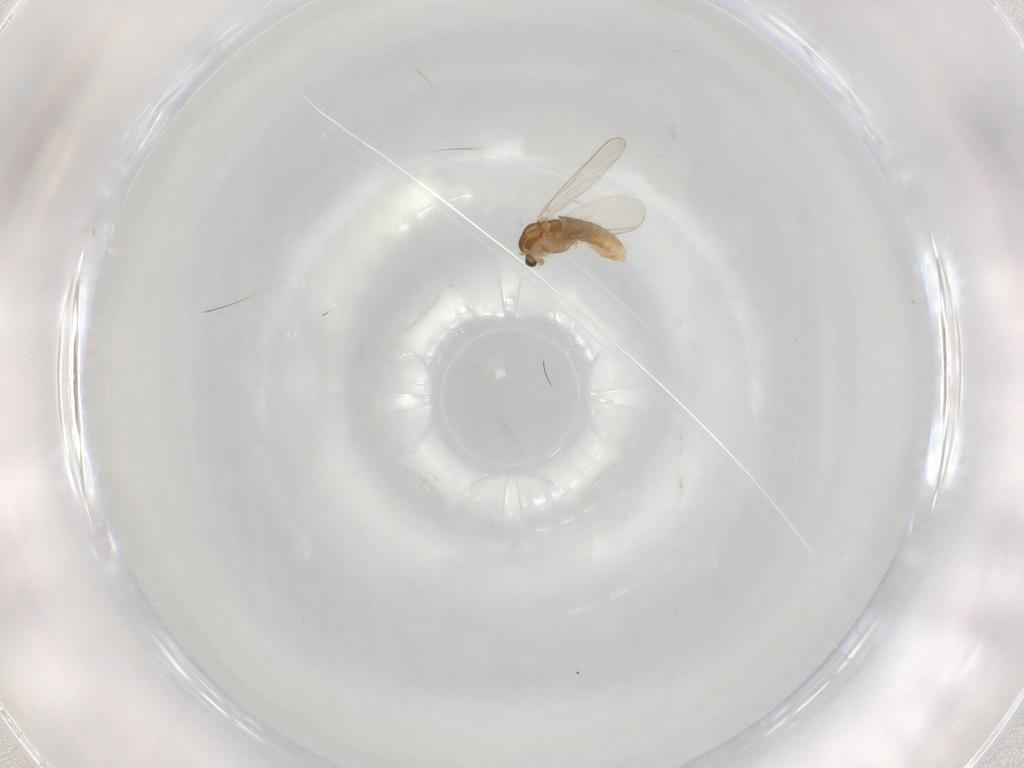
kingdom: Animalia
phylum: Arthropoda
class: Insecta
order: Diptera
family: Chironomidae
